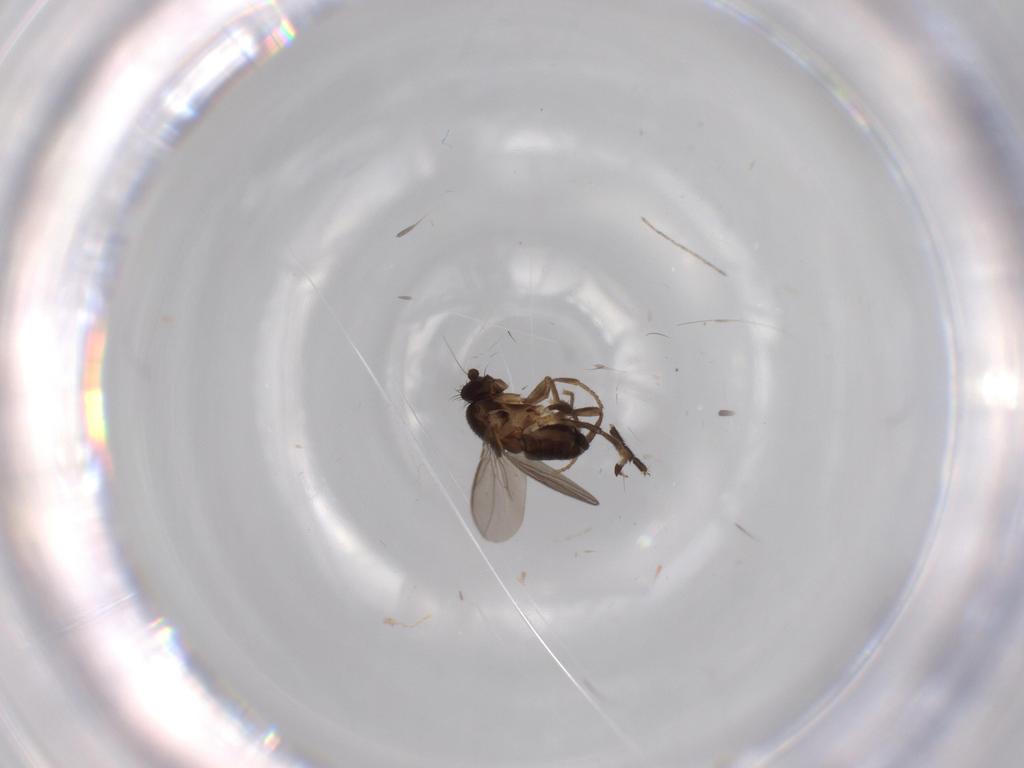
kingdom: Animalia
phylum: Arthropoda
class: Insecta
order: Diptera
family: Sphaeroceridae
